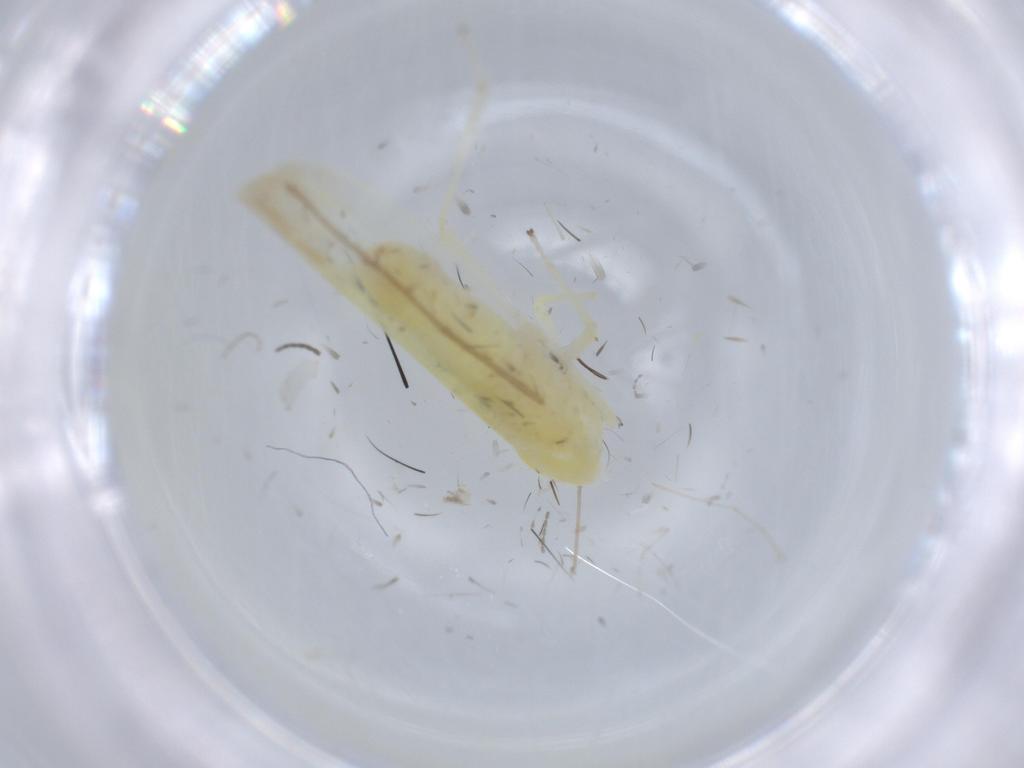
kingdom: Animalia
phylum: Arthropoda
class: Insecta
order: Hemiptera
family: Cicadellidae
